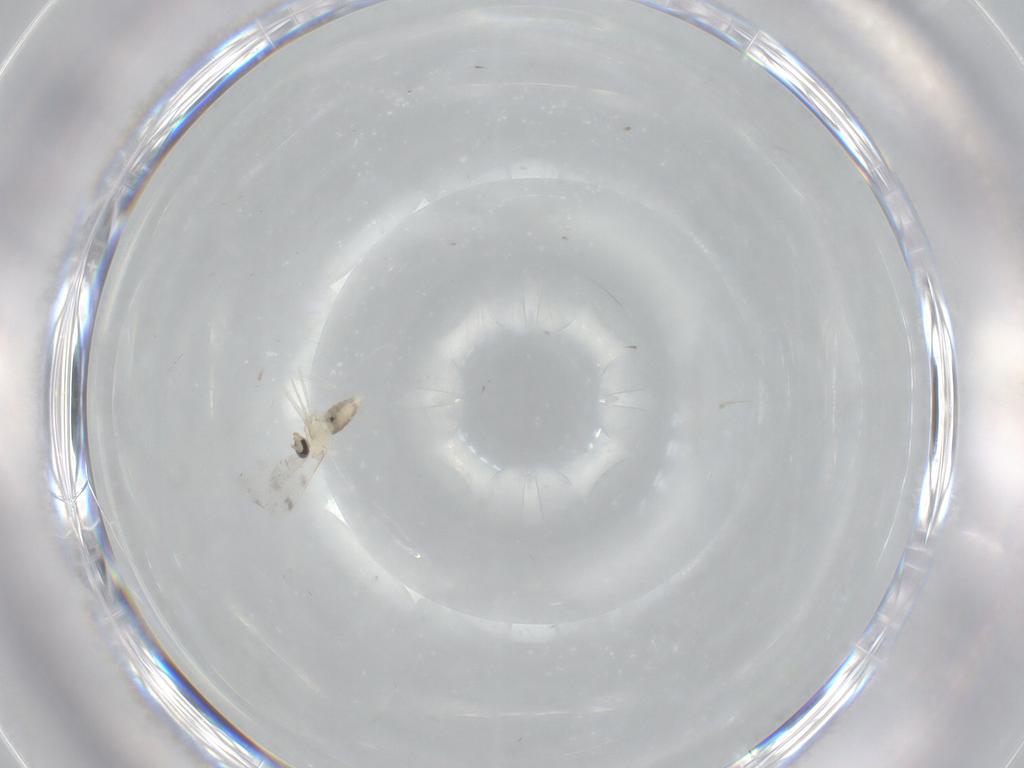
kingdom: Animalia
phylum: Arthropoda
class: Insecta
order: Diptera
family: Cecidomyiidae
